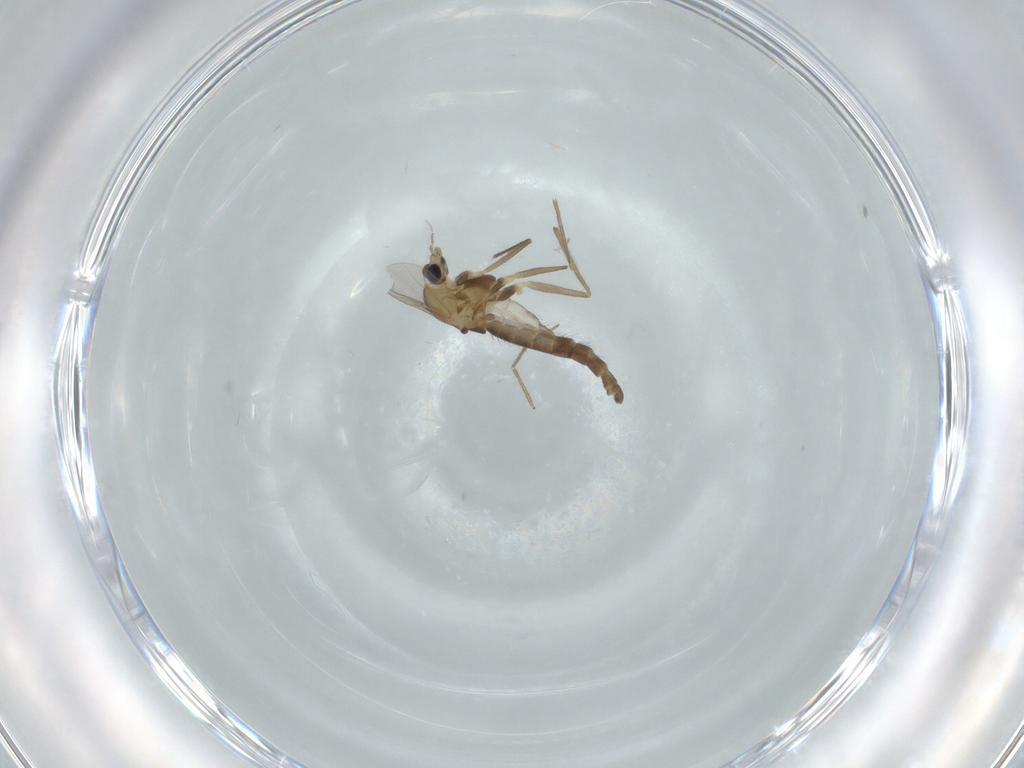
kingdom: Animalia
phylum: Arthropoda
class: Insecta
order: Diptera
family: Chironomidae
